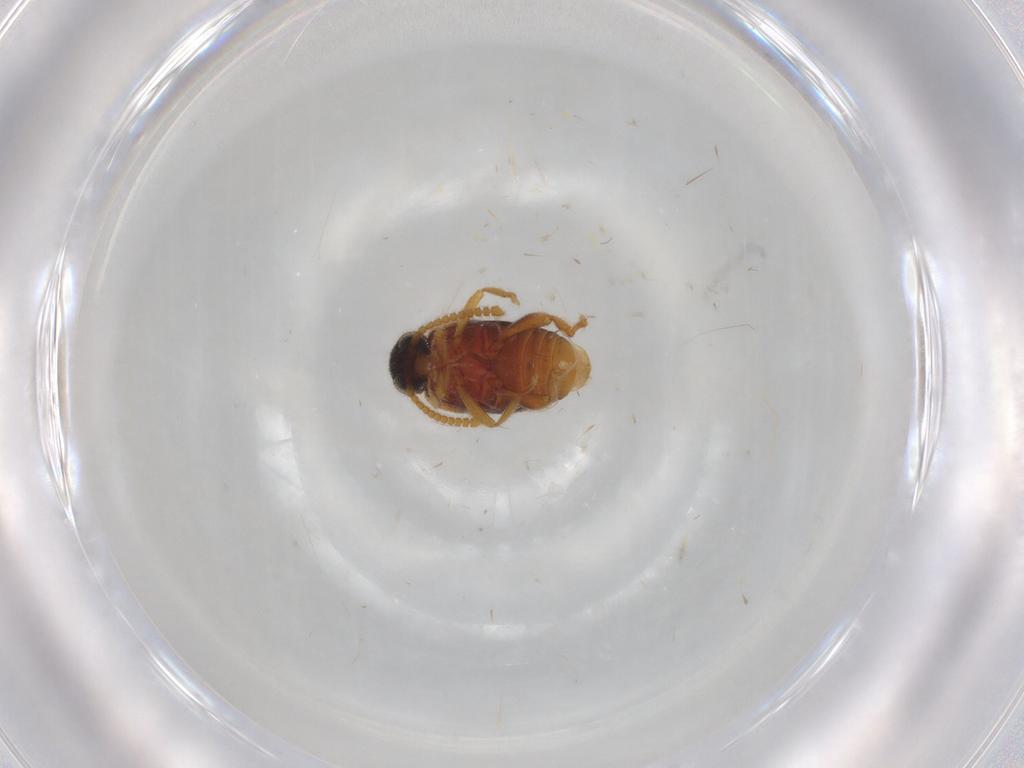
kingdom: Animalia
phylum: Arthropoda
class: Insecta
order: Coleoptera
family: Aderidae
